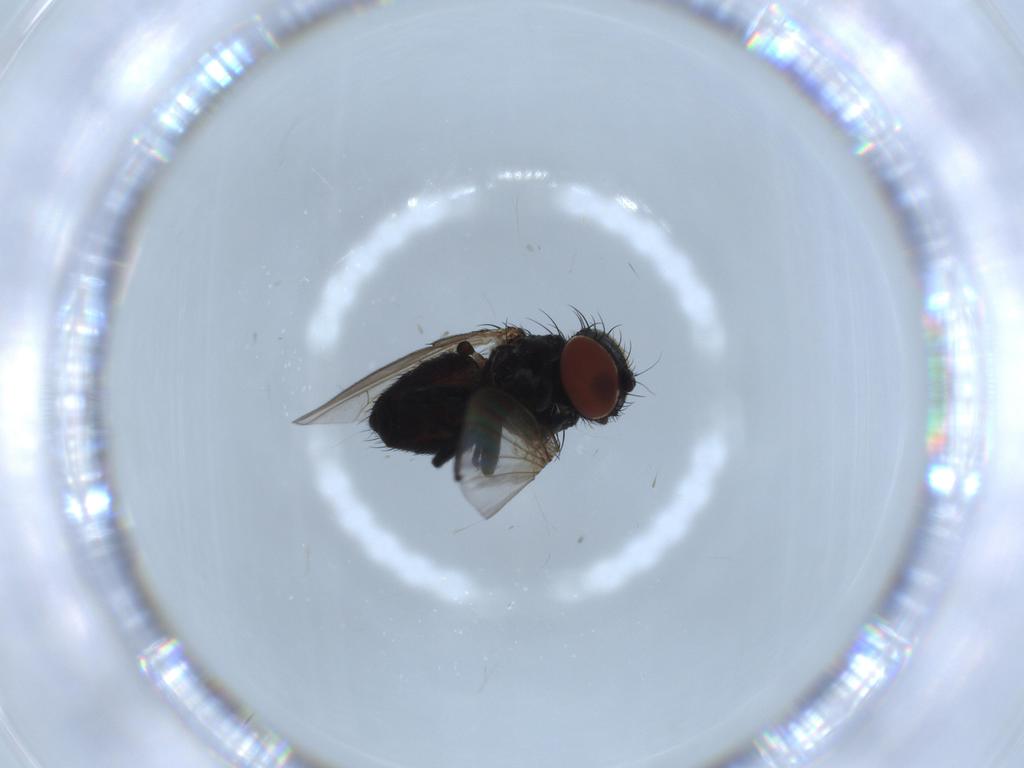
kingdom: Animalia
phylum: Arthropoda
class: Insecta
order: Diptera
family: Milichiidae
